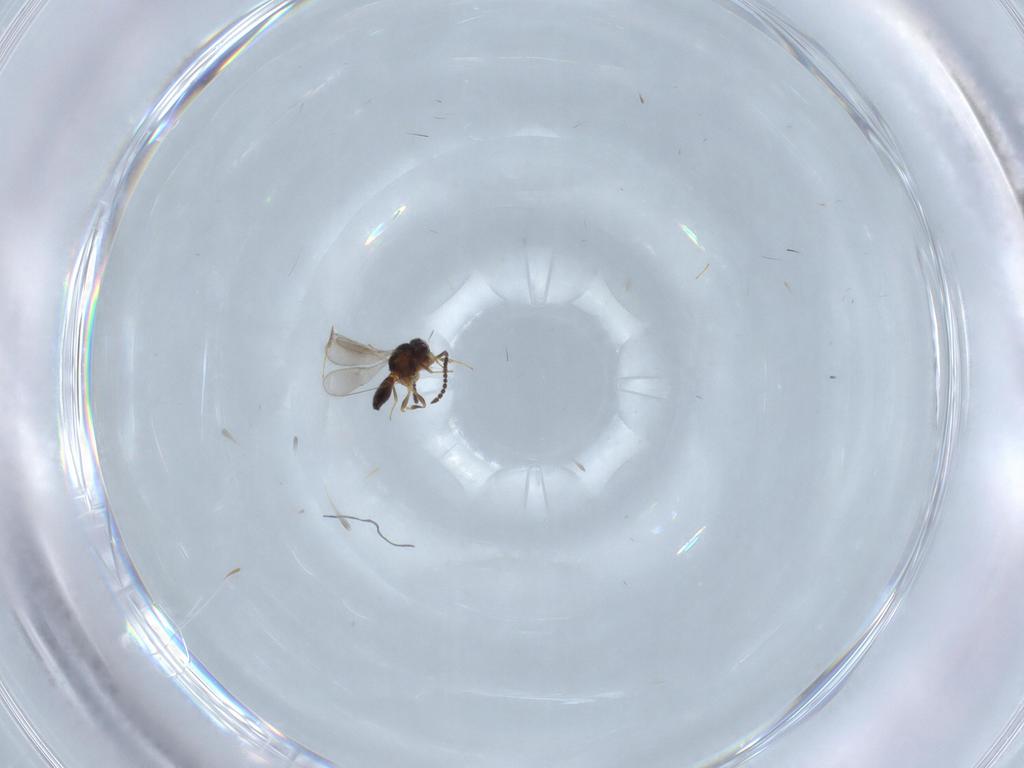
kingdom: Animalia
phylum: Arthropoda
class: Insecta
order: Hymenoptera
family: Scelionidae
